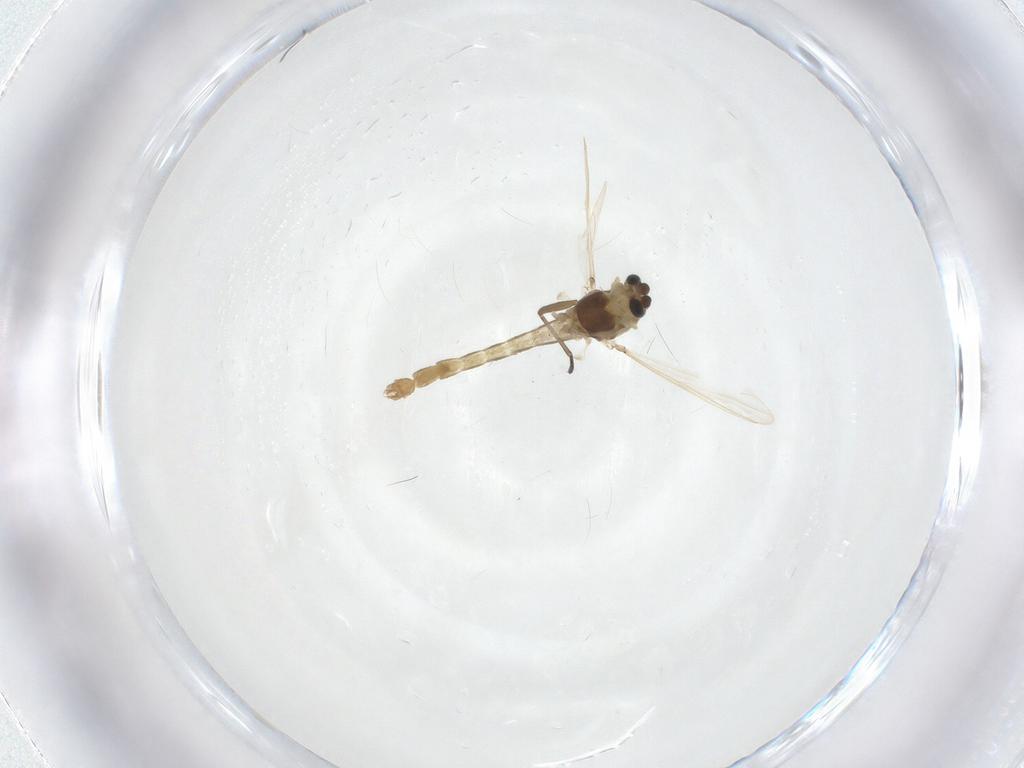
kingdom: Animalia
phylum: Arthropoda
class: Insecta
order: Diptera
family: Chironomidae
